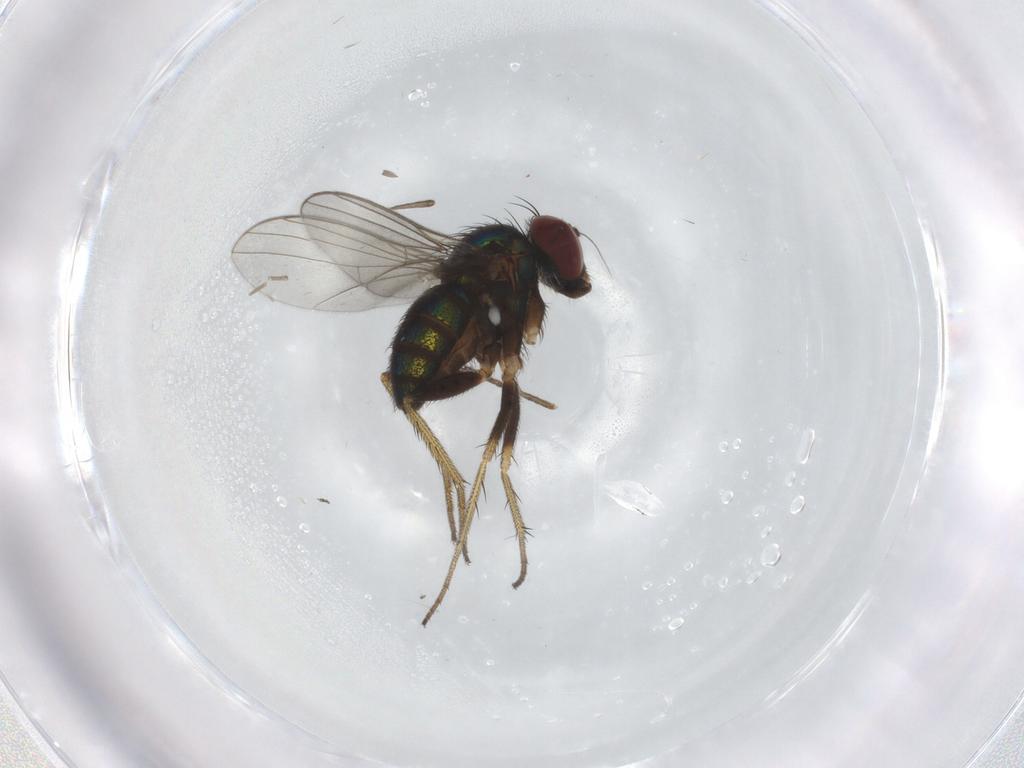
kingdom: Animalia
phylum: Arthropoda
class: Insecta
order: Diptera
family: Dolichopodidae
